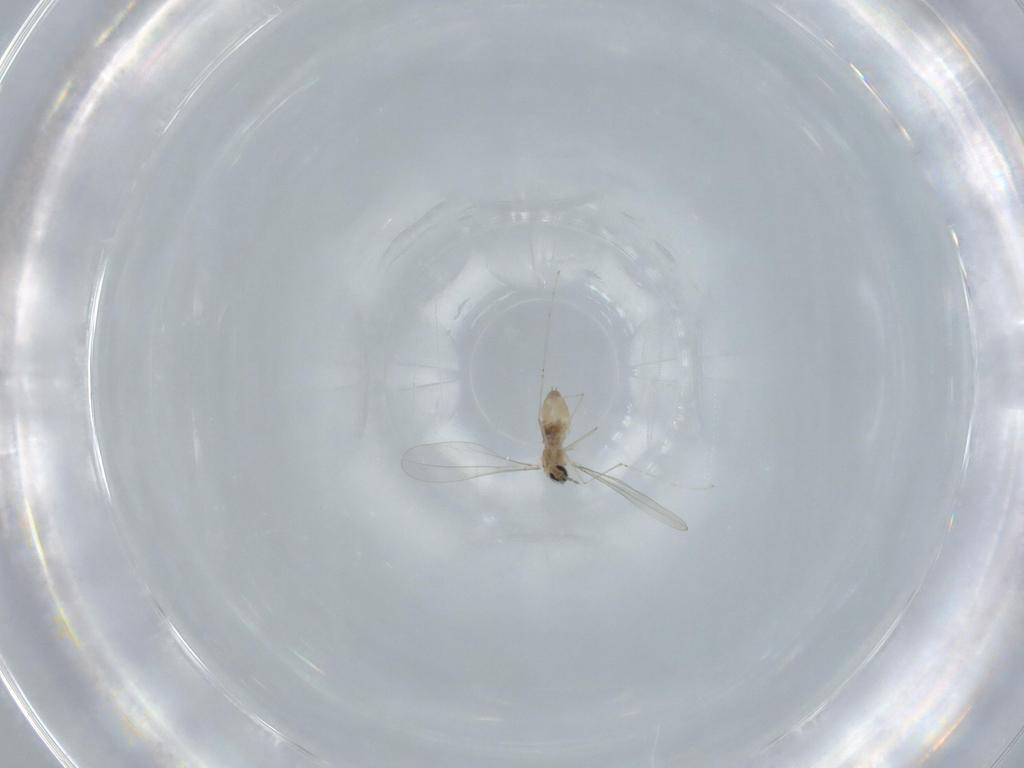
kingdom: Animalia
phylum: Arthropoda
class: Insecta
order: Diptera
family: Cecidomyiidae
